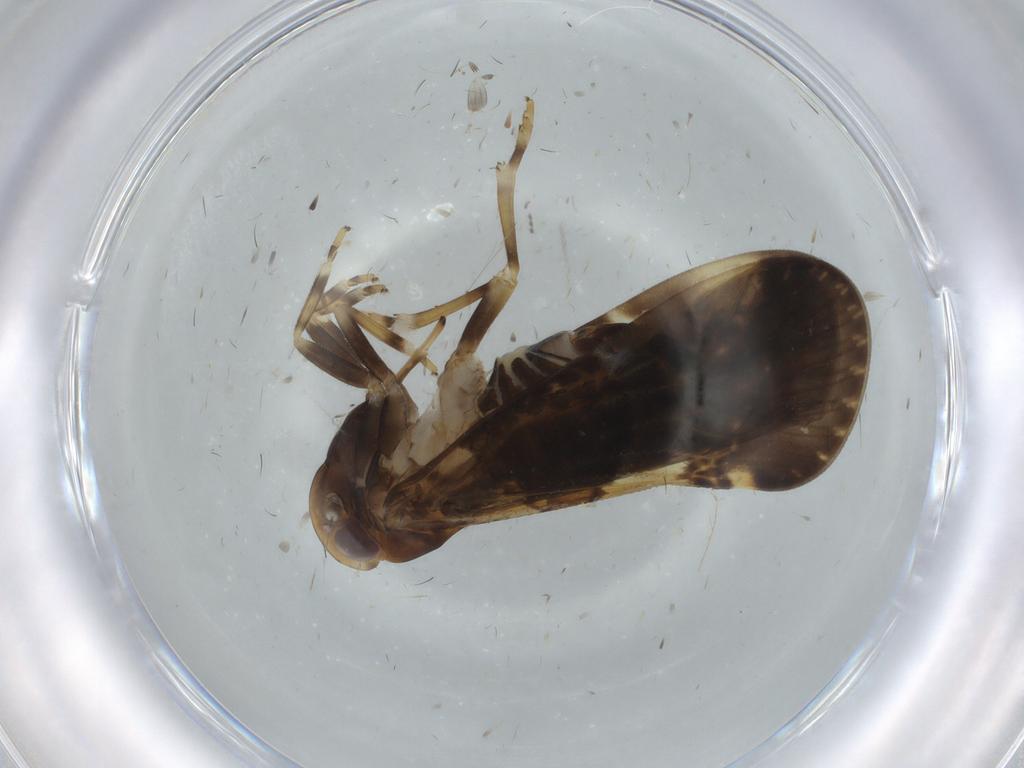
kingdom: Animalia
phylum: Arthropoda
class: Insecta
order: Hemiptera
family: Cixiidae
